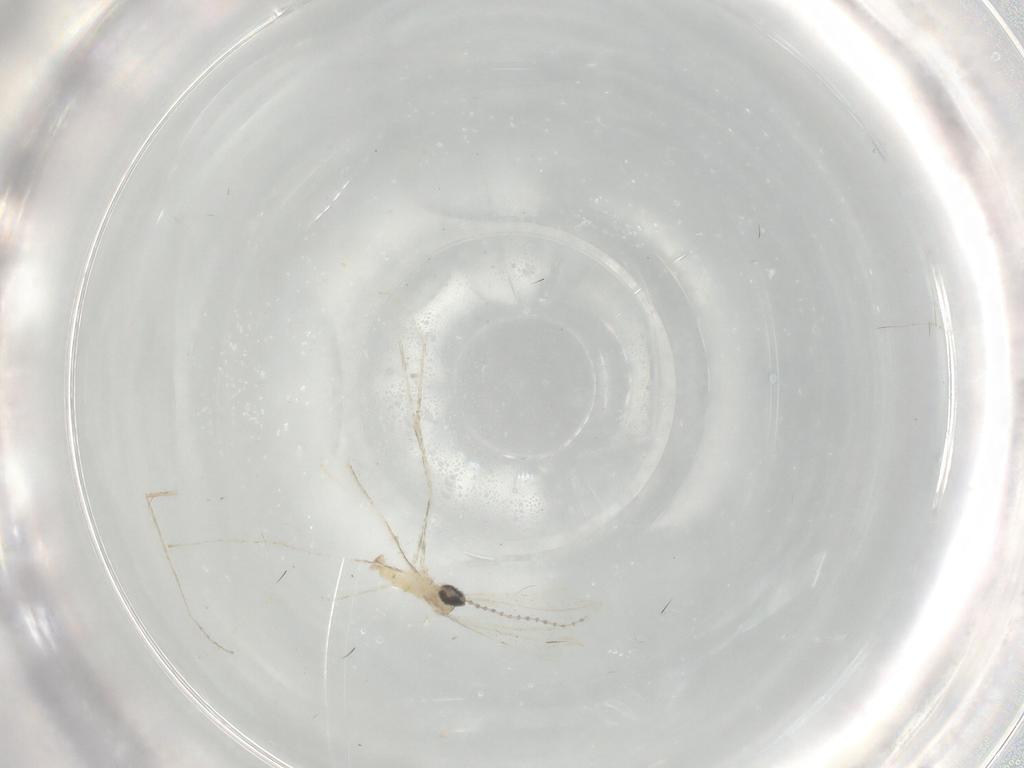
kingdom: Animalia
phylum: Arthropoda
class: Insecta
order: Diptera
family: Cecidomyiidae
